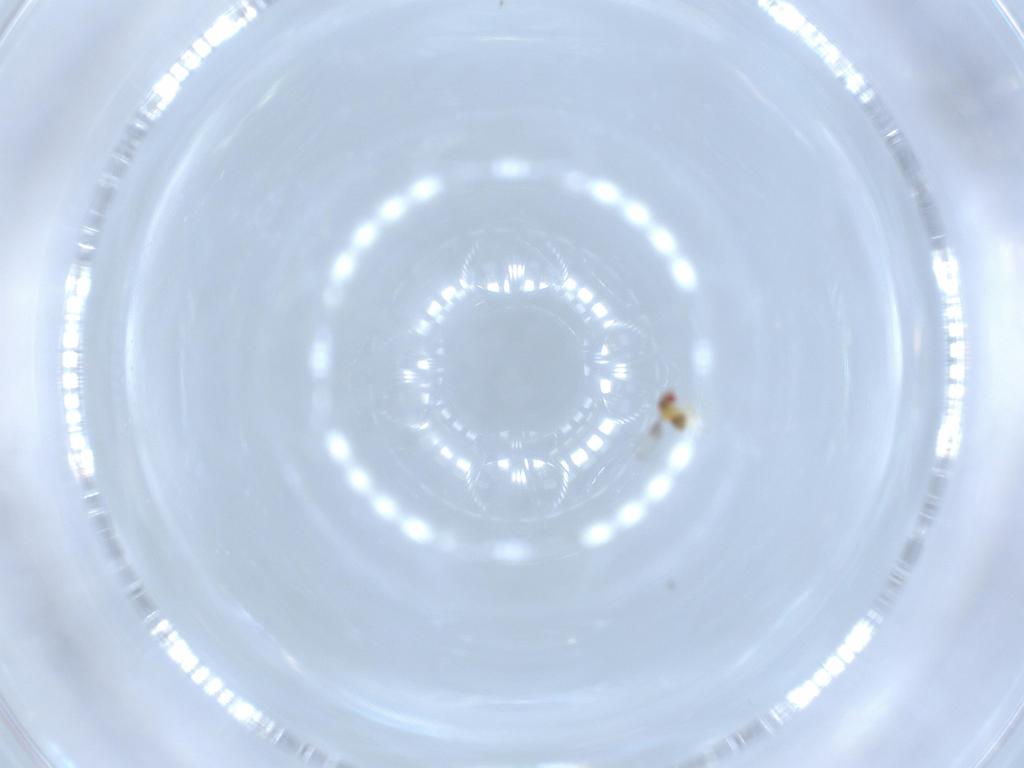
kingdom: Animalia
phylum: Arthropoda
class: Insecta
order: Hymenoptera
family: Trichogrammatidae
